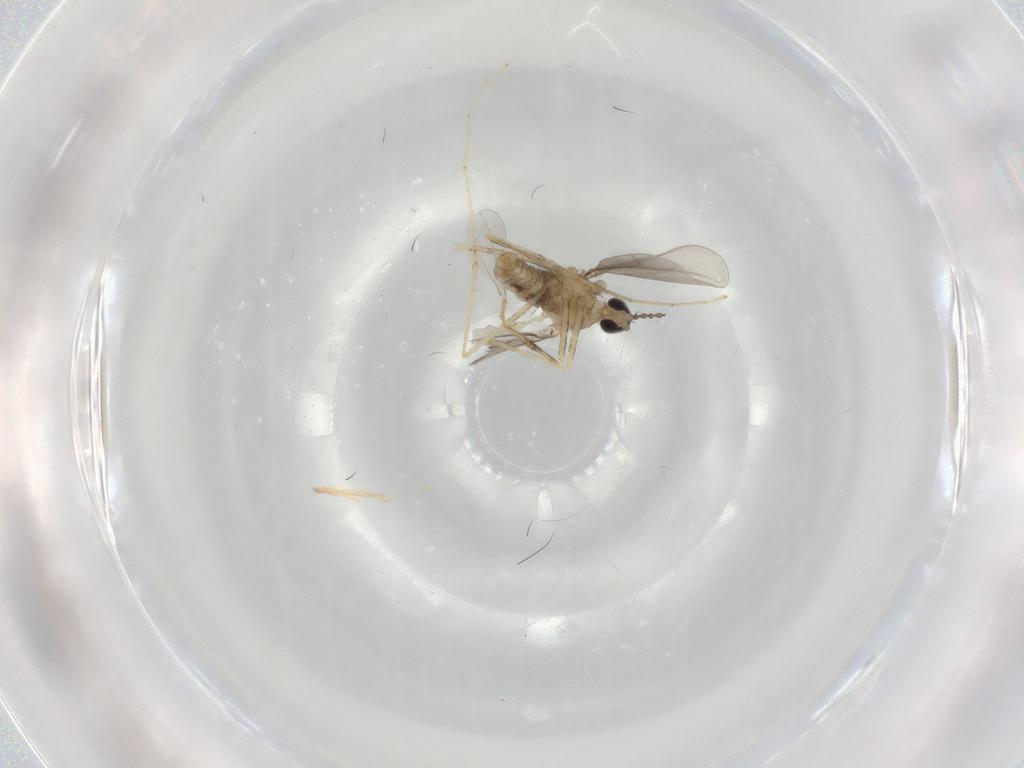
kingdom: Animalia
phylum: Arthropoda
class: Insecta
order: Diptera
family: Cecidomyiidae
